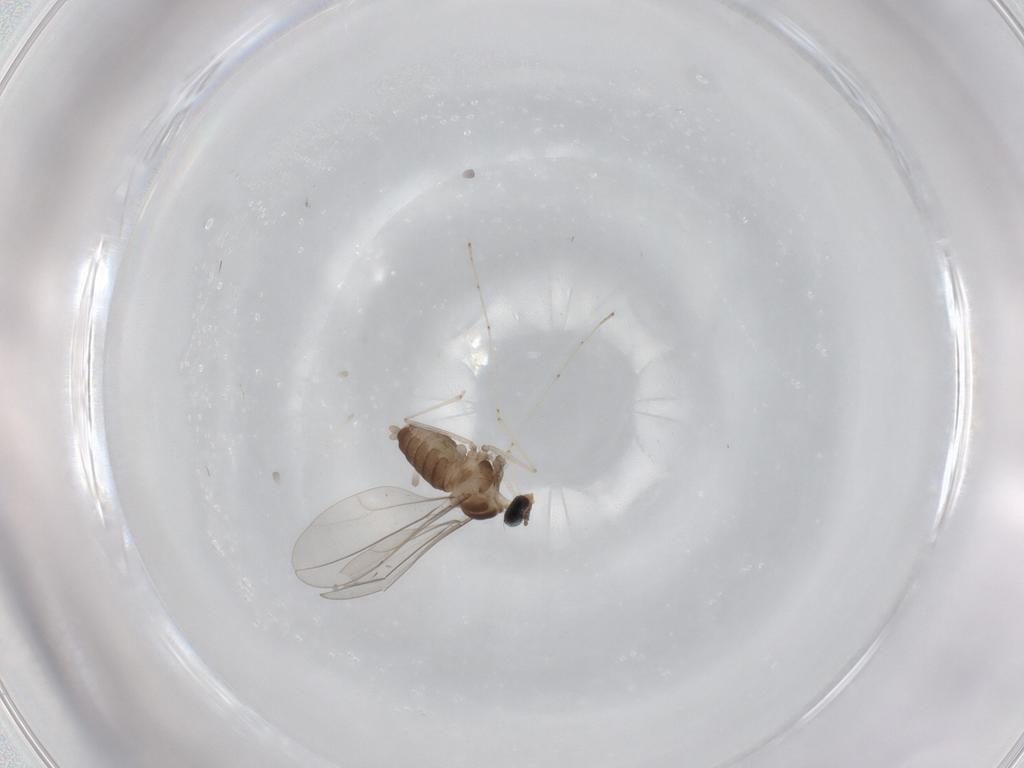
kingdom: Animalia
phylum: Arthropoda
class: Insecta
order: Diptera
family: Cecidomyiidae
